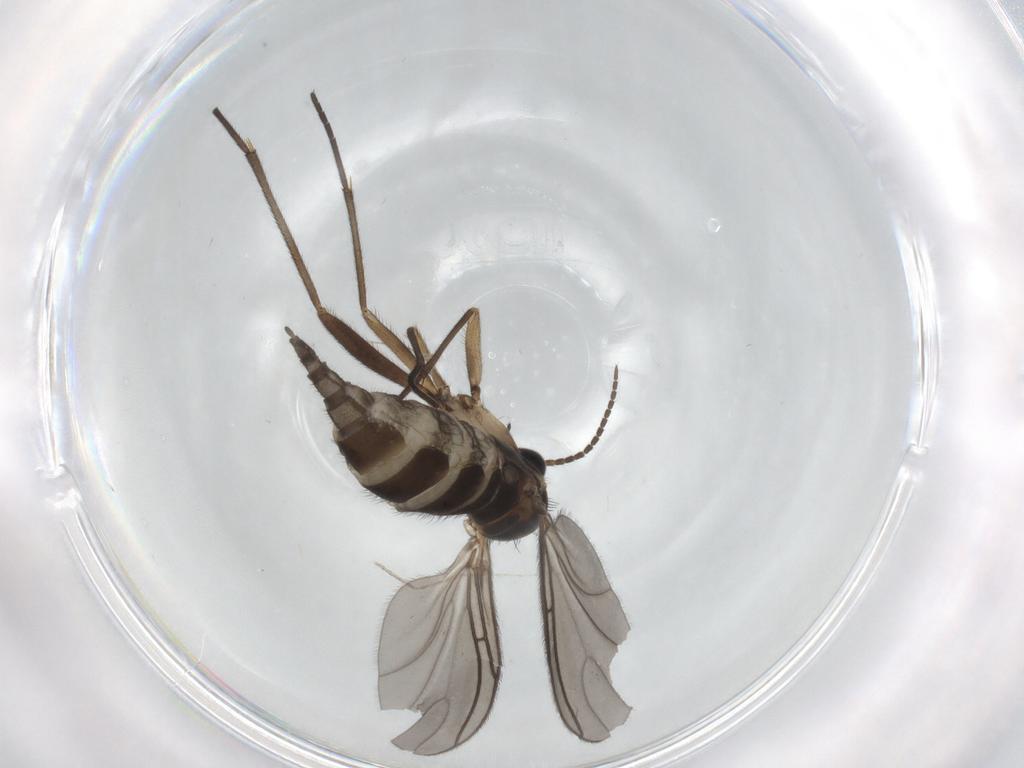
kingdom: Animalia
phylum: Arthropoda
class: Insecta
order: Diptera
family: Sciaridae
